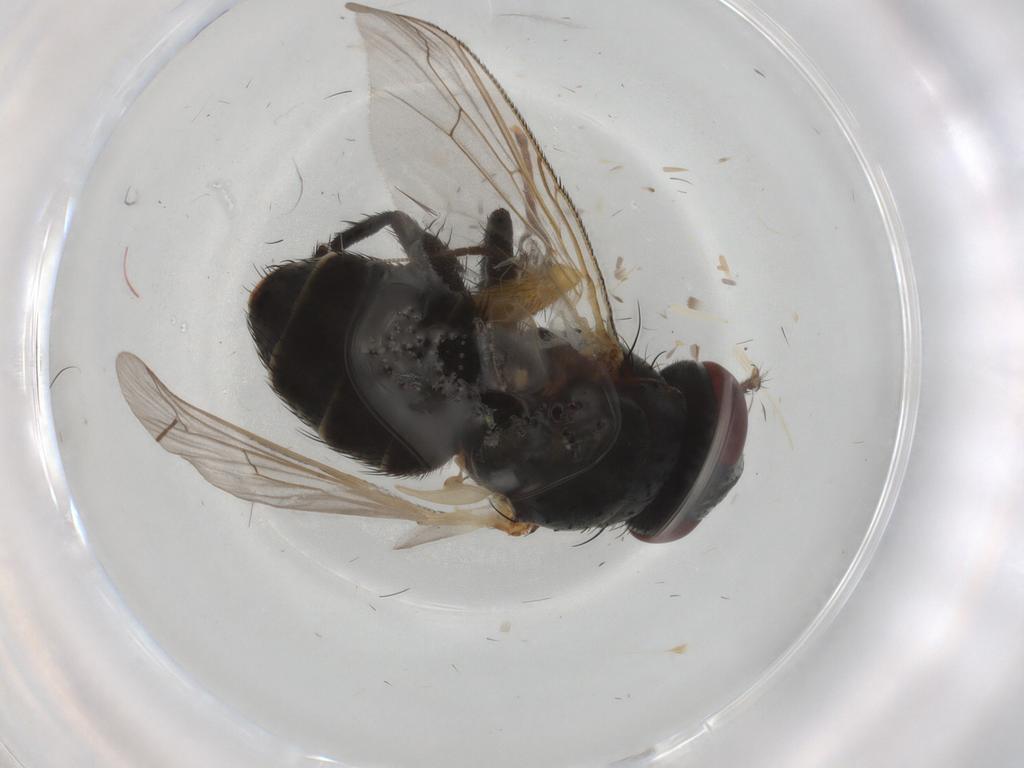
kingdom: Animalia
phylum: Arthropoda
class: Insecta
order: Diptera
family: Sarcophagidae
